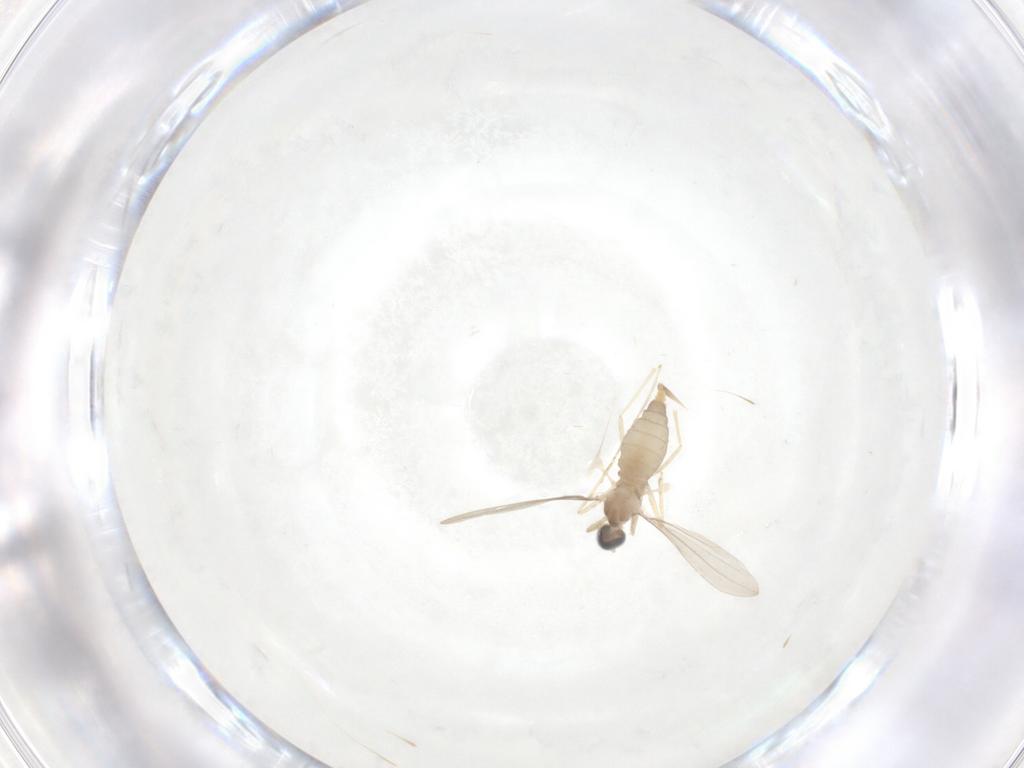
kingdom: Animalia
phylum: Arthropoda
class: Insecta
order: Diptera
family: Cecidomyiidae
